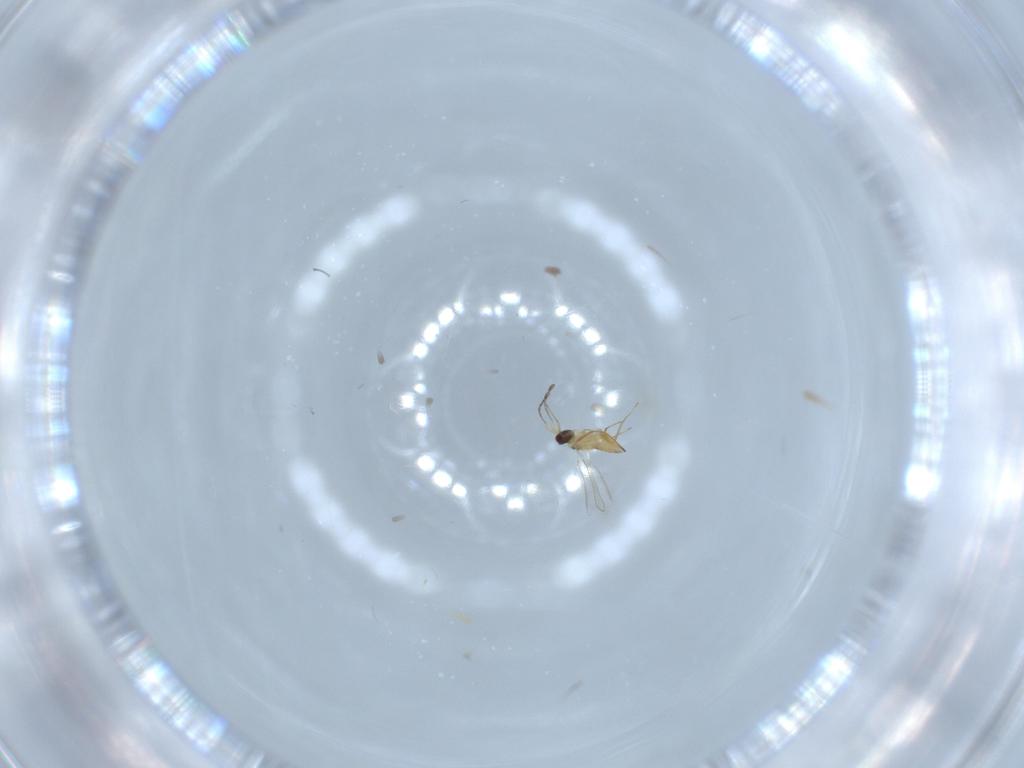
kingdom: Animalia
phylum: Arthropoda
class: Insecta
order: Hymenoptera
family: Mymaridae
